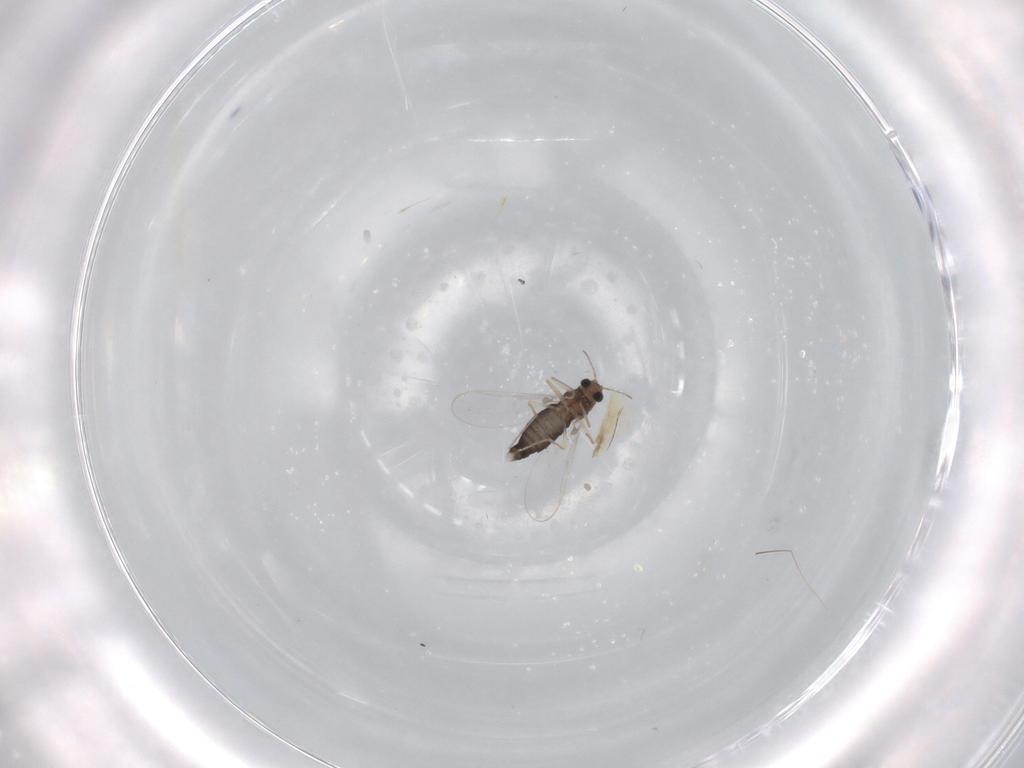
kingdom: Animalia
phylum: Arthropoda
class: Insecta
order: Diptera
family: Chironomidae
